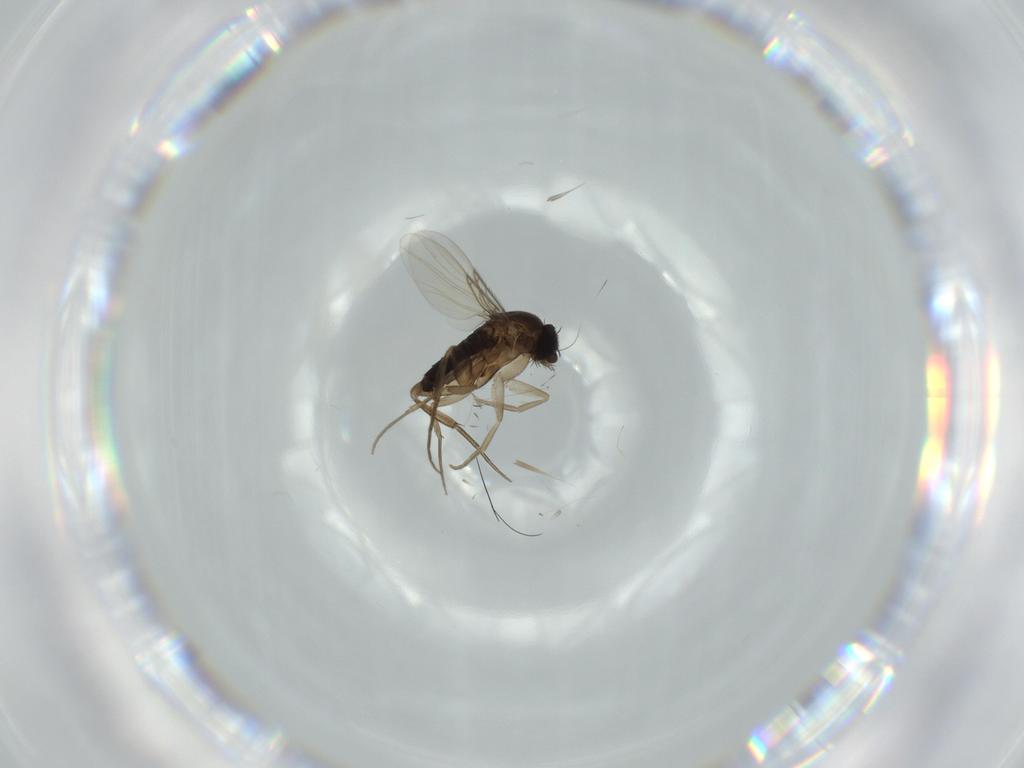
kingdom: Animalia
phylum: Arthropoda
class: Insecta
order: Diptera
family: Phoridae
